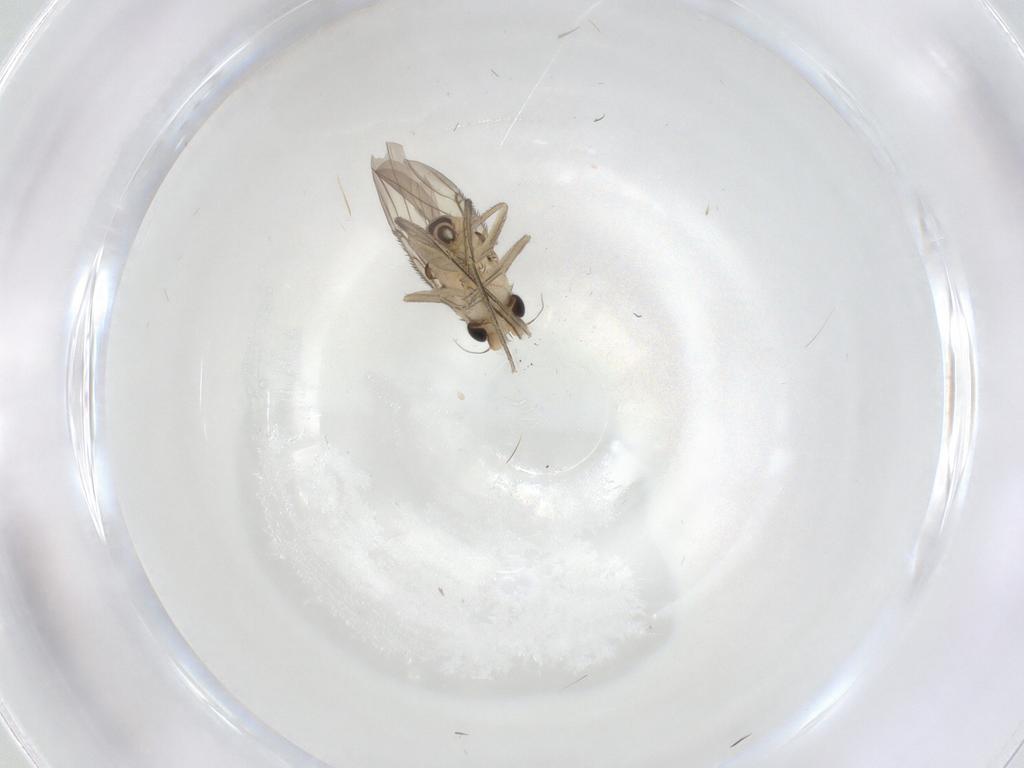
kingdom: Animalia
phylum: Arthropoda
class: Insecta
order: Diptera
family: Phoridae
